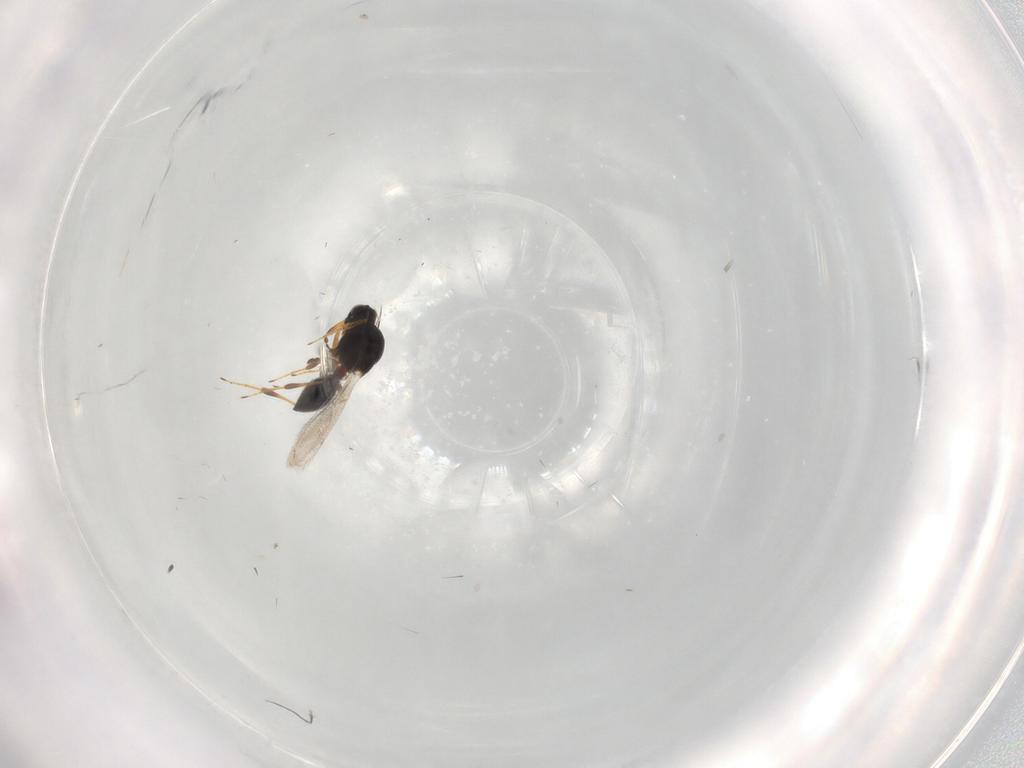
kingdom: Animalia
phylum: Arthropoda
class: Insecta
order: Hymenoptera
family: Platygastridae
